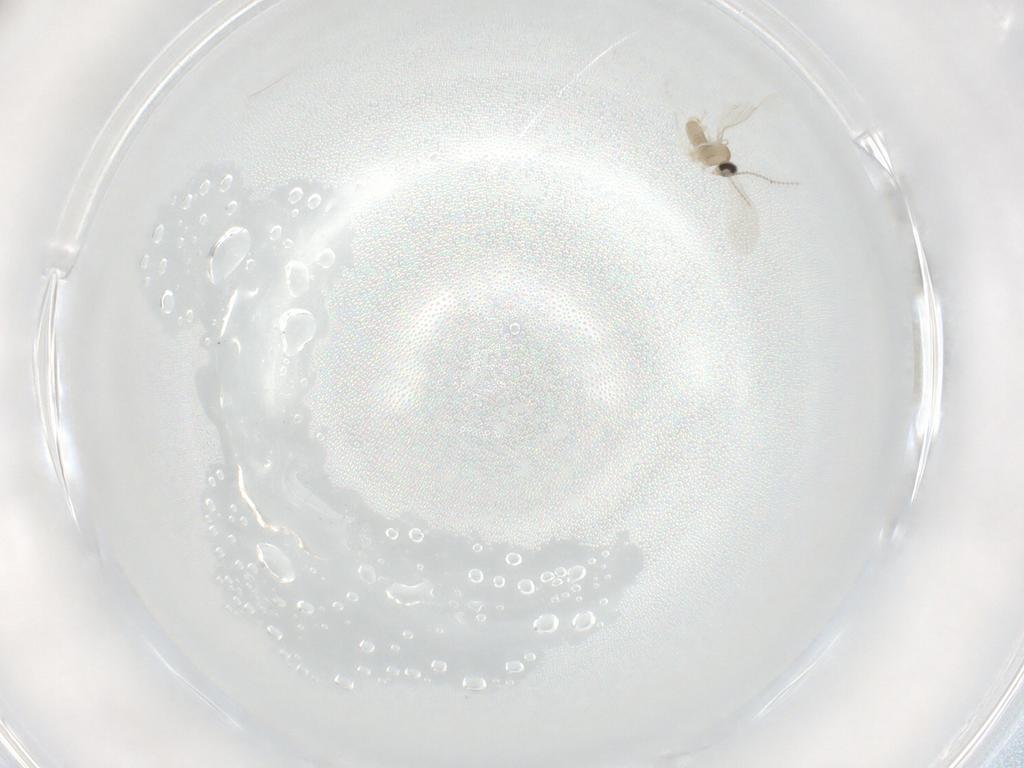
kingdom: Animalia
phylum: Arthropoda
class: Insecta
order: Diptera
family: Cecidomyiidae
